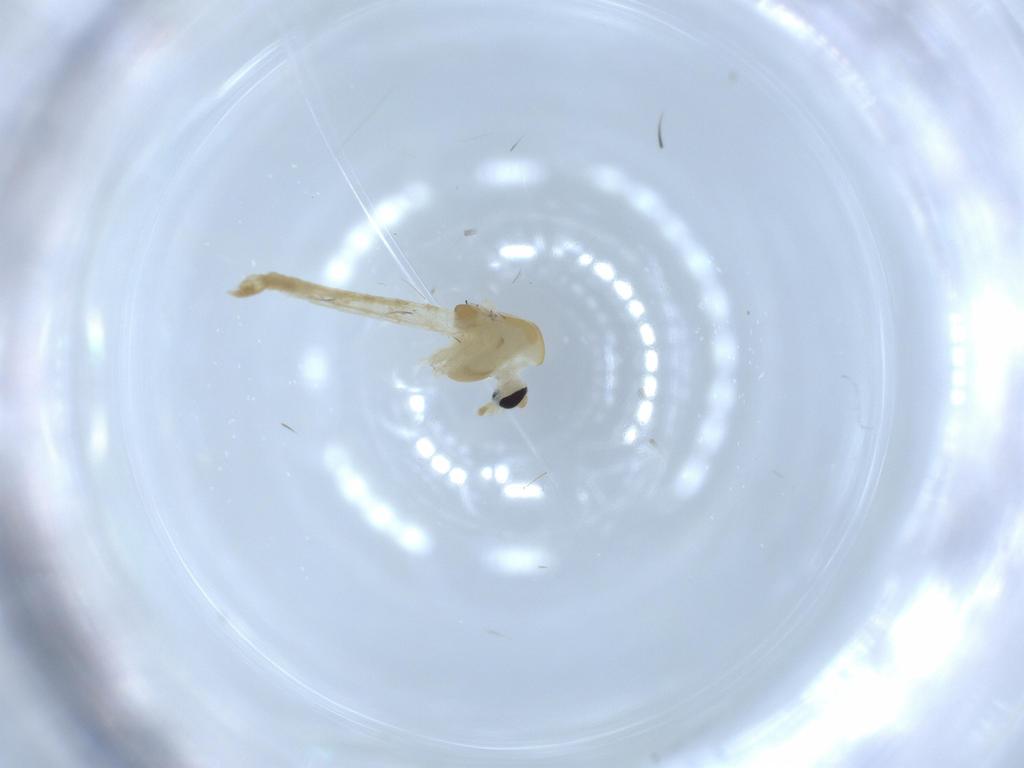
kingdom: Animalia
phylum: Arthropoda
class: Insecta
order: Diptera
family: Chironomidae
